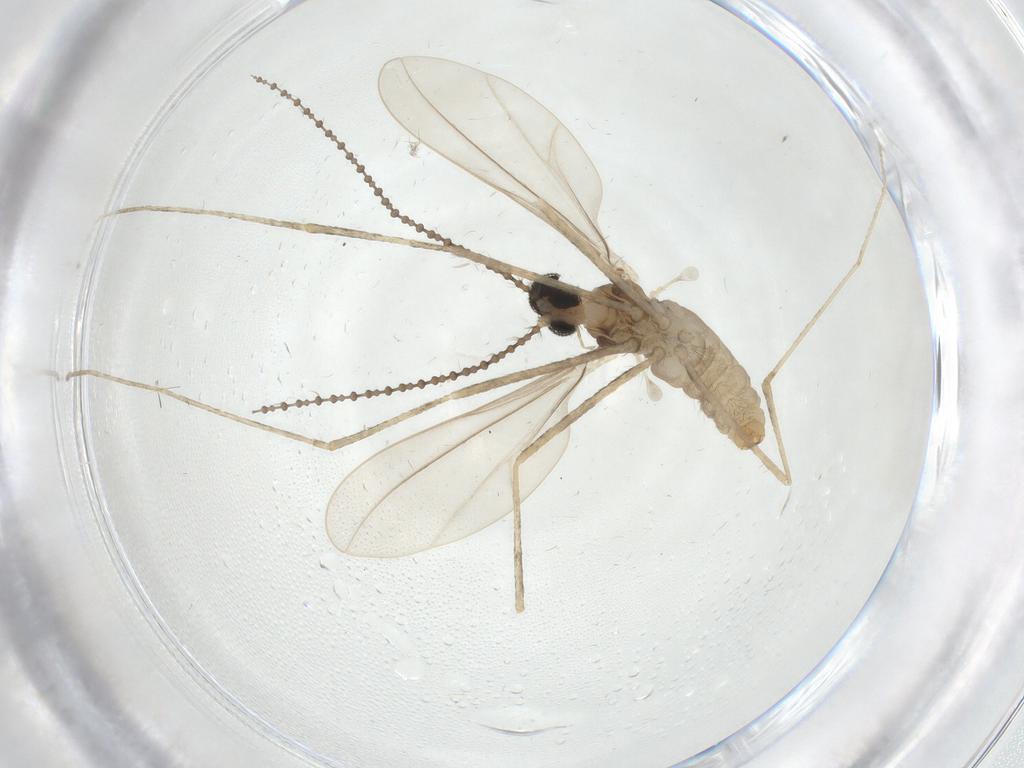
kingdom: Animalia
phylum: Arthropoda
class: Insecta
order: Diptera
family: Cecidomyiidae
